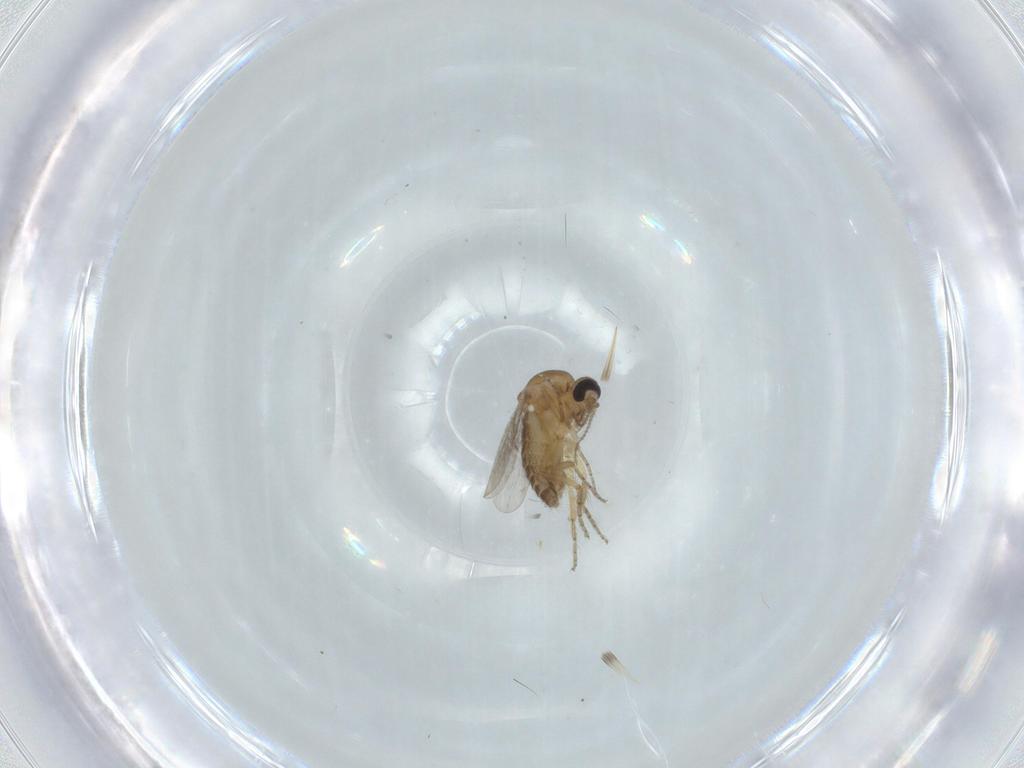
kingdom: Animalia
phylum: Arthropoda
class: Insecta
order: Diptera
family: Ceratopogonidae
